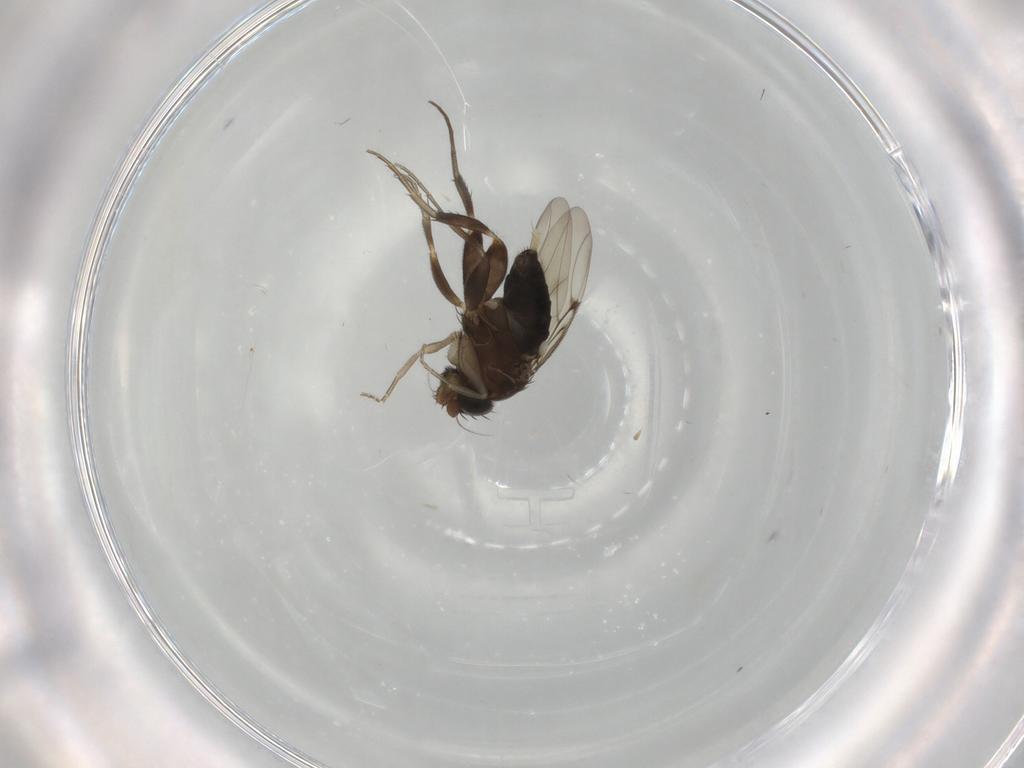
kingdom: Animalia
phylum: Arthropoda
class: Insecta
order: Diptera
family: Phoridae
